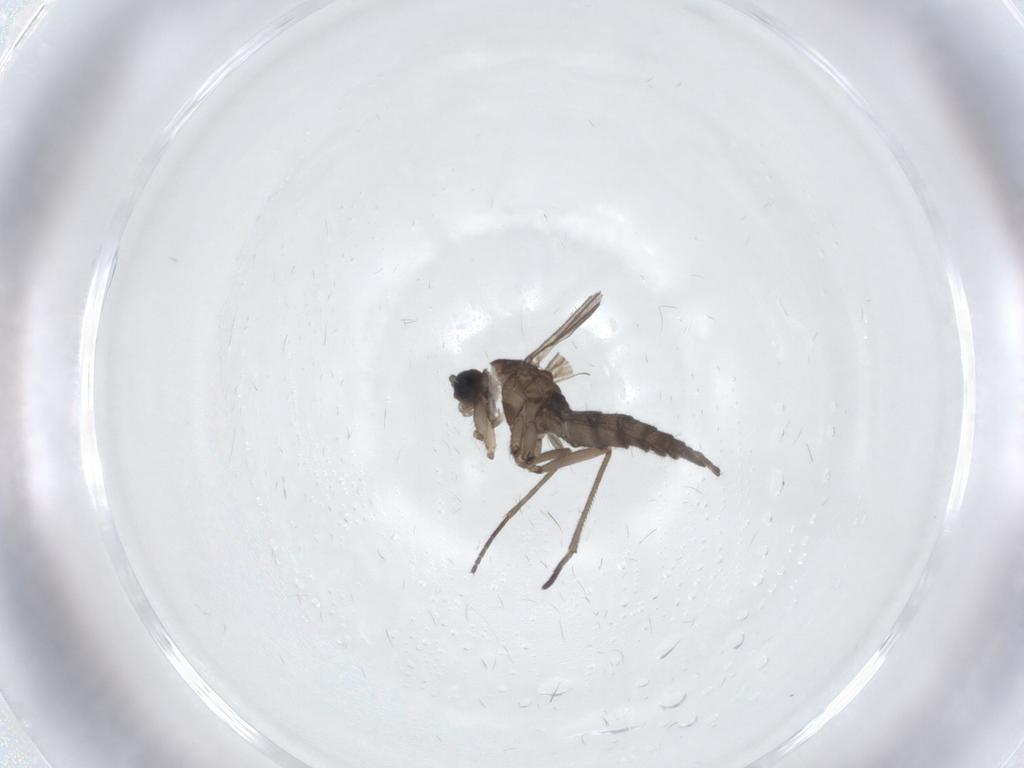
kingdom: Animalia
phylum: Arthropoda
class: Insecta
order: Diptera
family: Sciaridae
